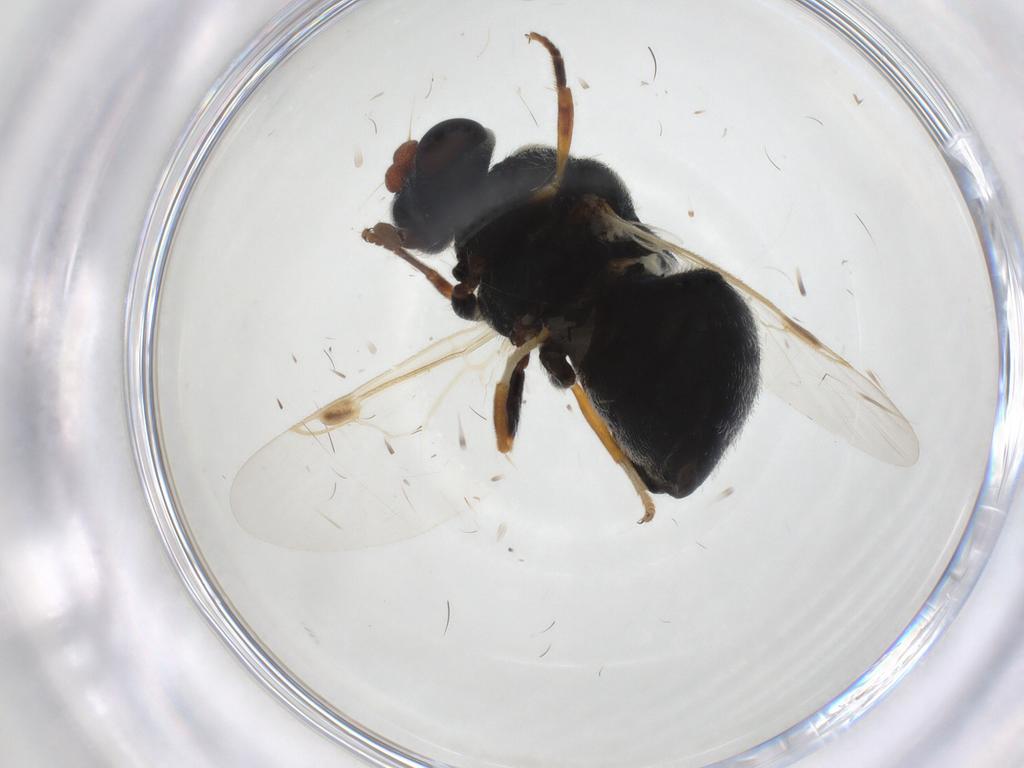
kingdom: Animalia
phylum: Arthropoda
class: Insecta
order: Diptera
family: Stratiomyidae
